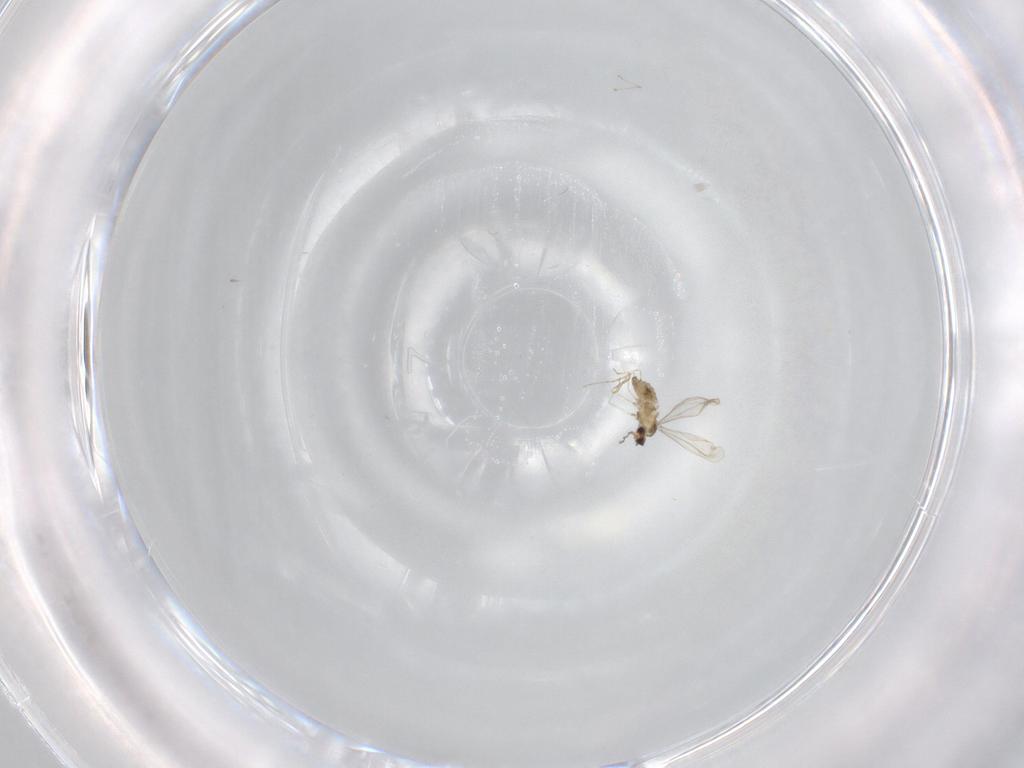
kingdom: Animalia
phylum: Arthropoda
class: Insecta
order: Diptera
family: Cecidomyiidae
